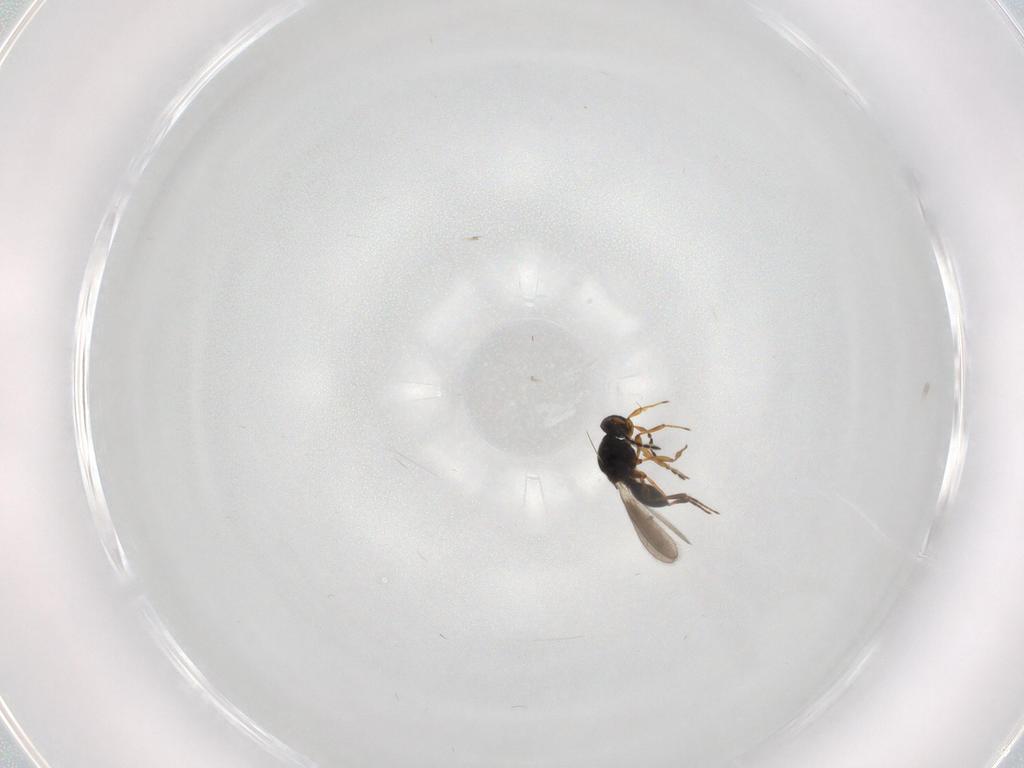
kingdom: Animalia
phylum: Arthropoda
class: Insecta
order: Hymenoptera
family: Platygastridae
